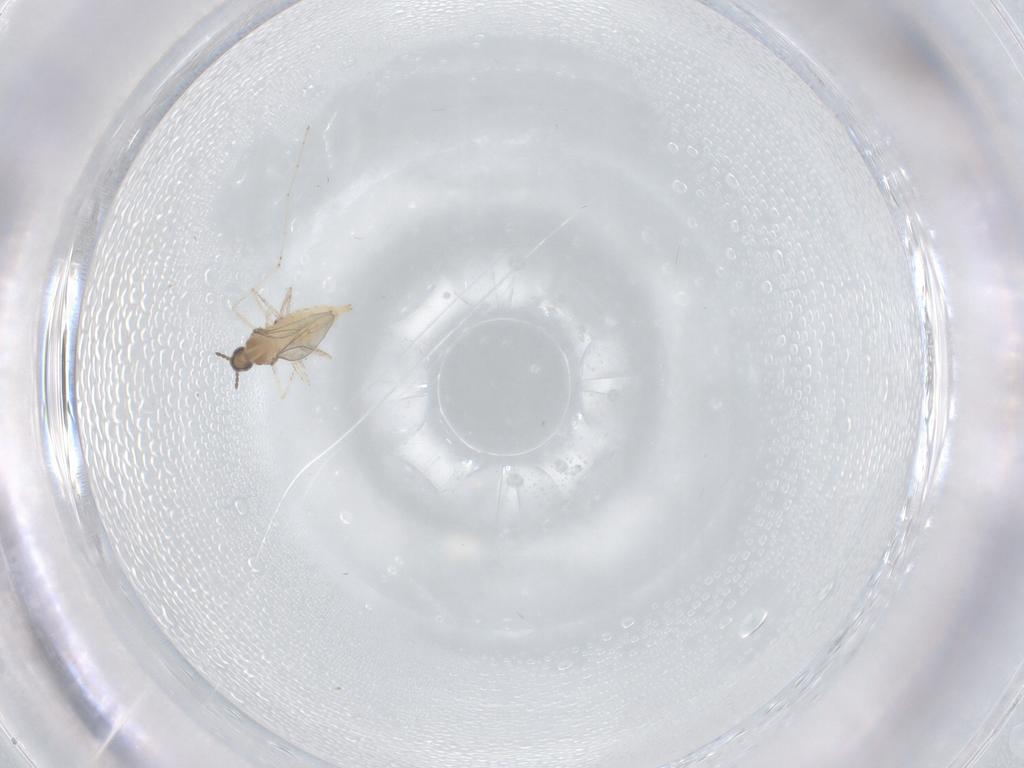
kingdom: Animalia
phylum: Arthropoda
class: Insecta
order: Diptera
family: Cecidomyiidae
